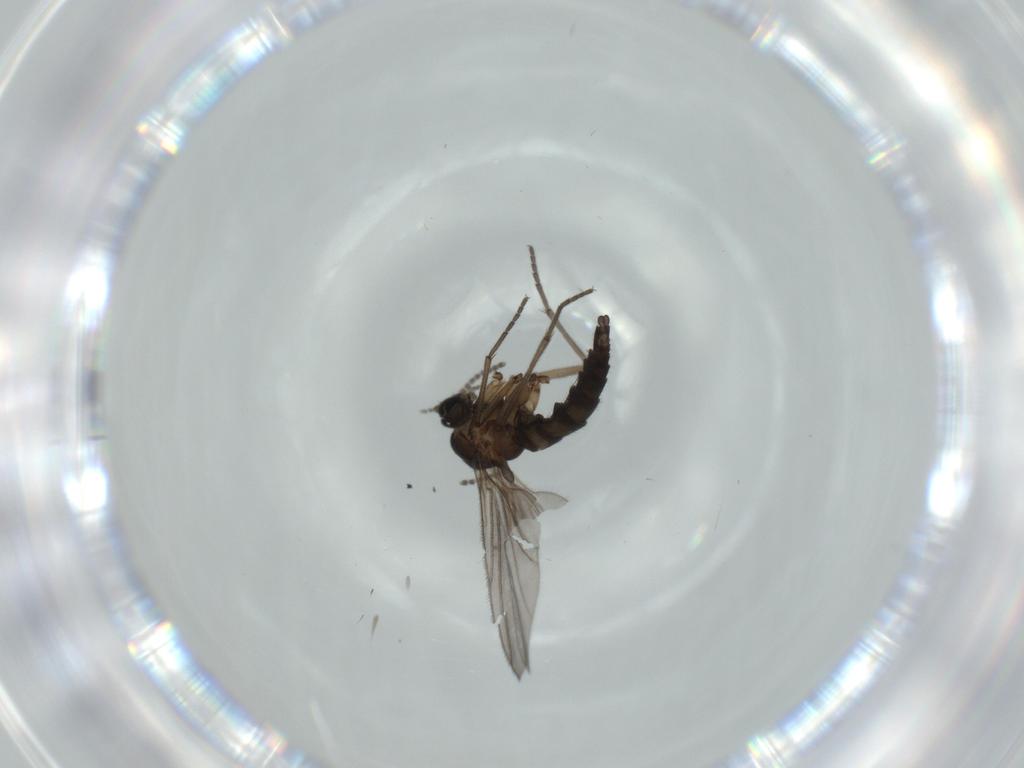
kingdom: Animalia
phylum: Arthropoda
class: Insecta
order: Diptera
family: Sciaridae
